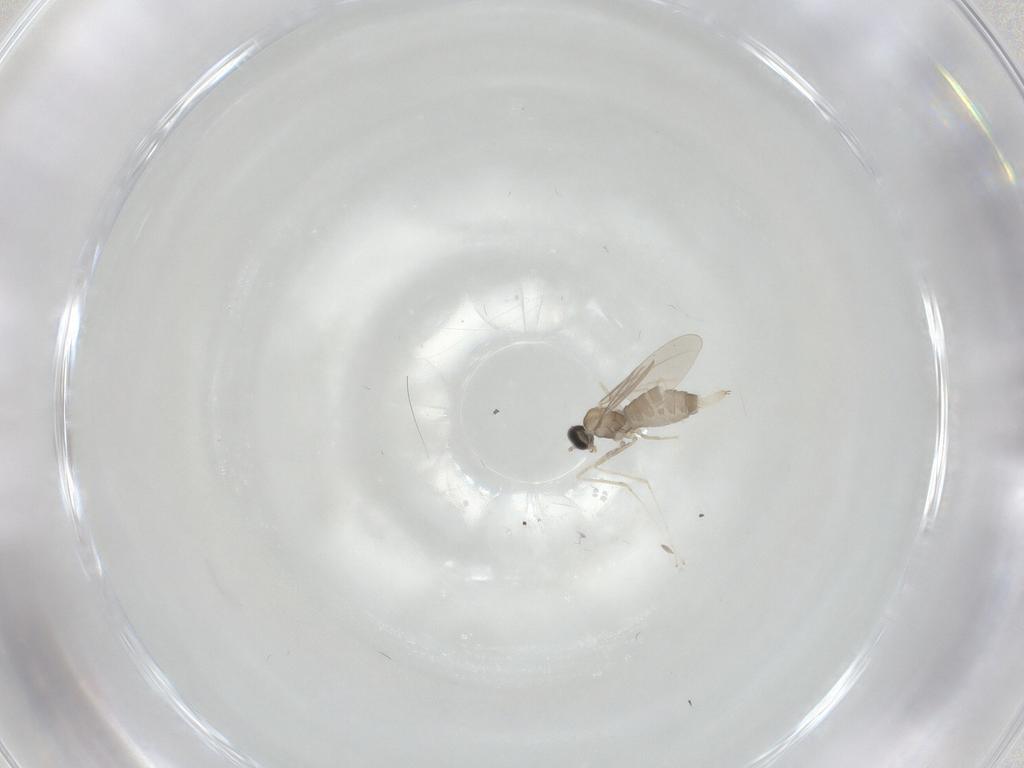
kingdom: Animalia
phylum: Arthropoda
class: Insecta
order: Diptera
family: Cecidomyiidae
